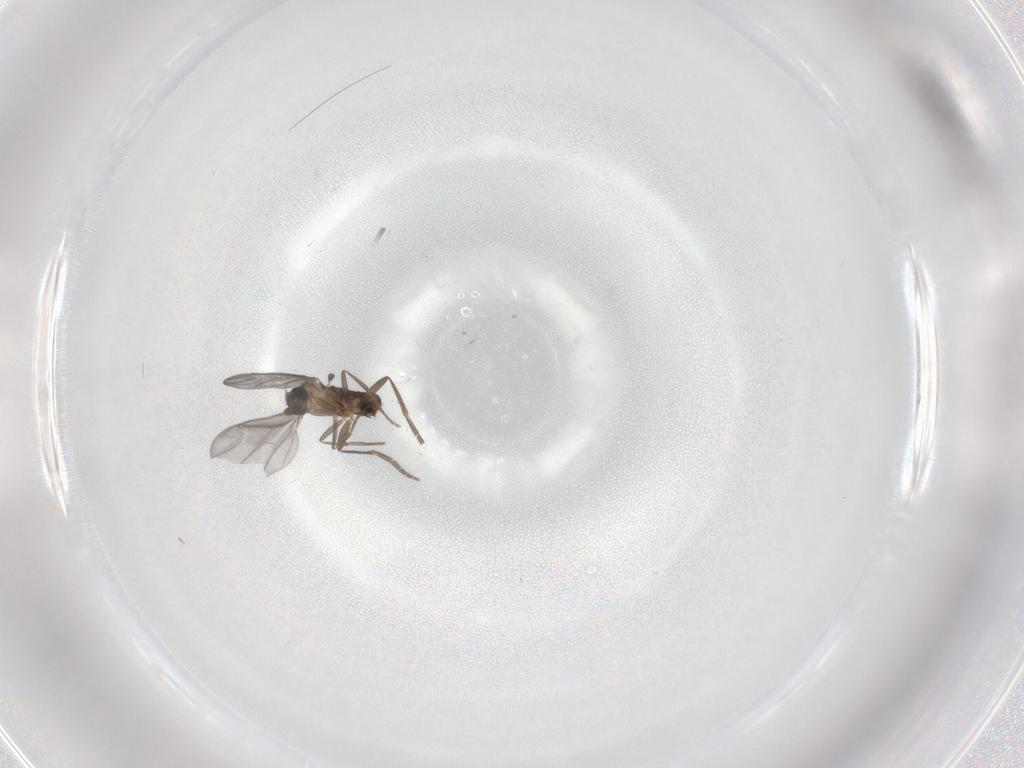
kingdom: Animalia
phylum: Arthropoda
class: Insecta
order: Diptera
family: Phoridae
